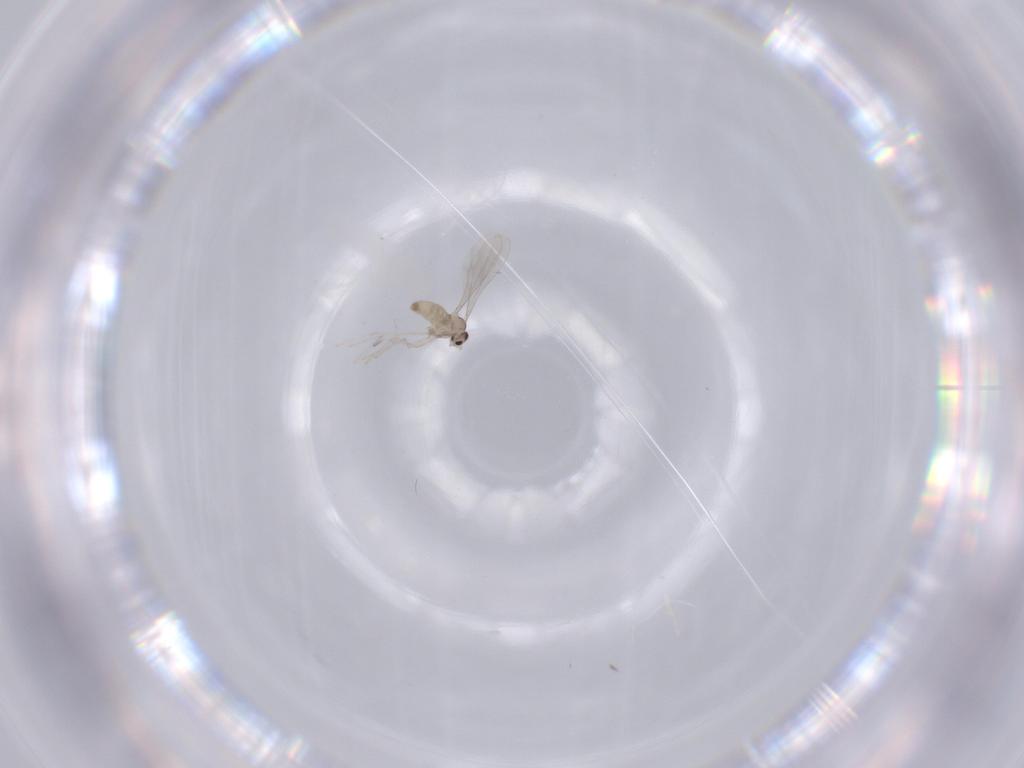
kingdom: Animalia
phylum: Arthropoda
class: Insecta
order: Diptera
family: Cecidomyiidae
